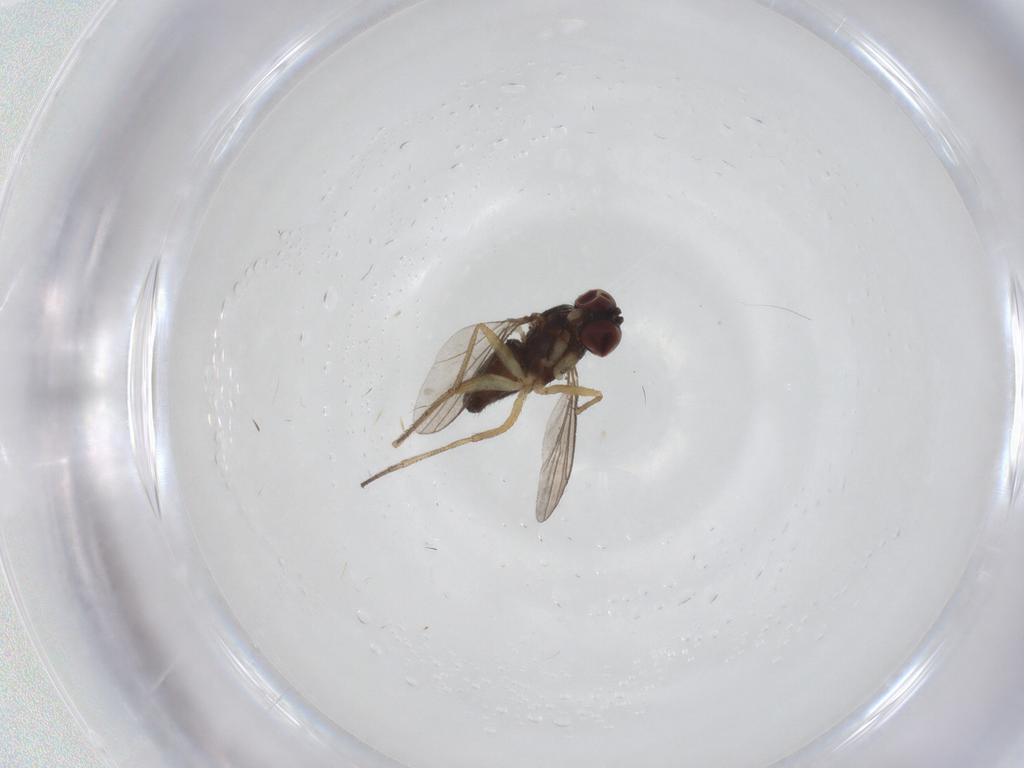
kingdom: Animalia
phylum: Arthropoda
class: Insecta
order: Diptera
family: Dolichopodidae
